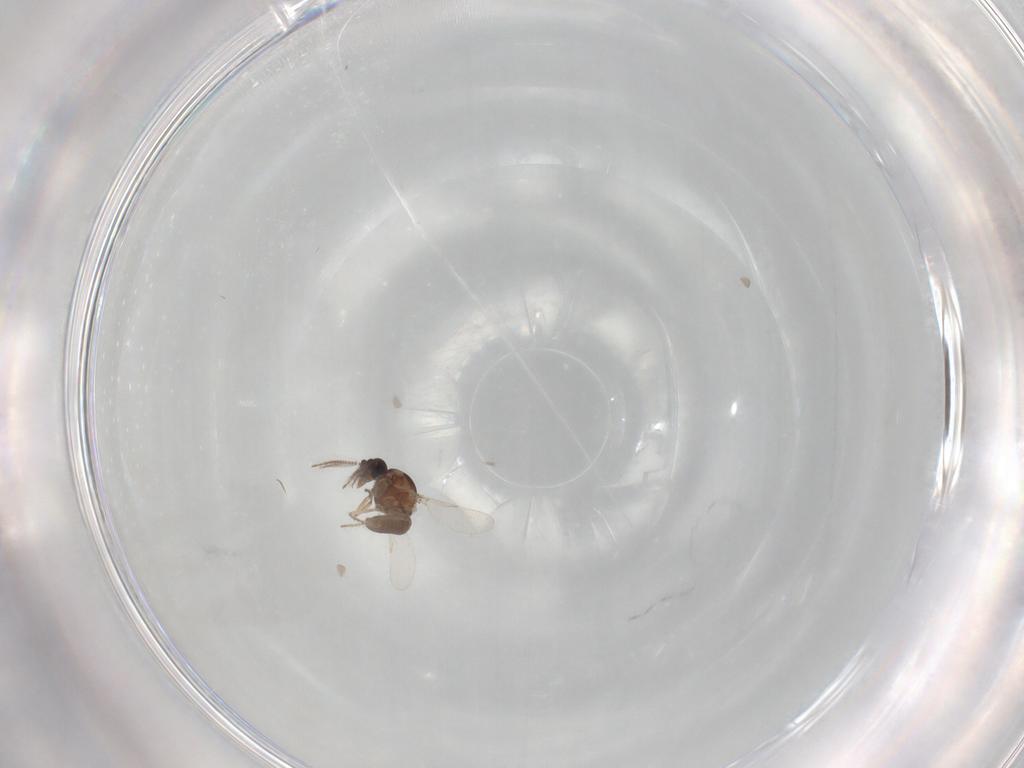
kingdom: Animalia
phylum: Arthropoda
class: Insecta
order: Diptera
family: Ceratopogonidae
